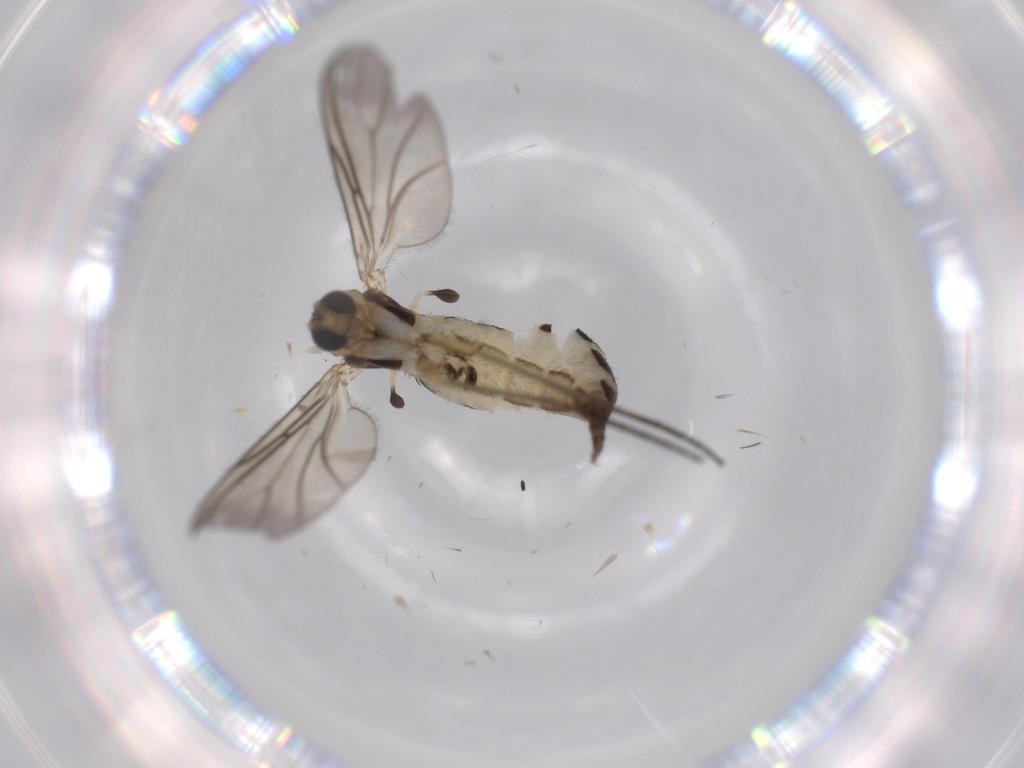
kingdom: Animalia
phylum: Arthropoda
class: Insecta
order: Diptera
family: Sciaridae
